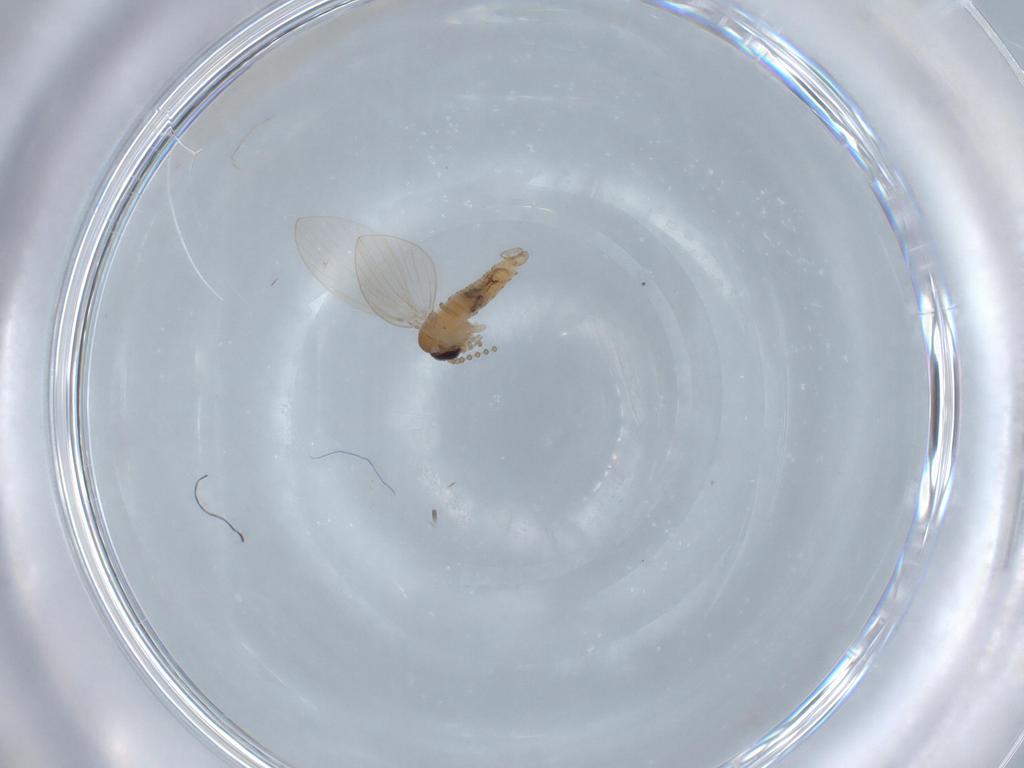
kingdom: Animalia
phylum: Arthropoda
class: Insecta
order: Diptera
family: Psychodidae
